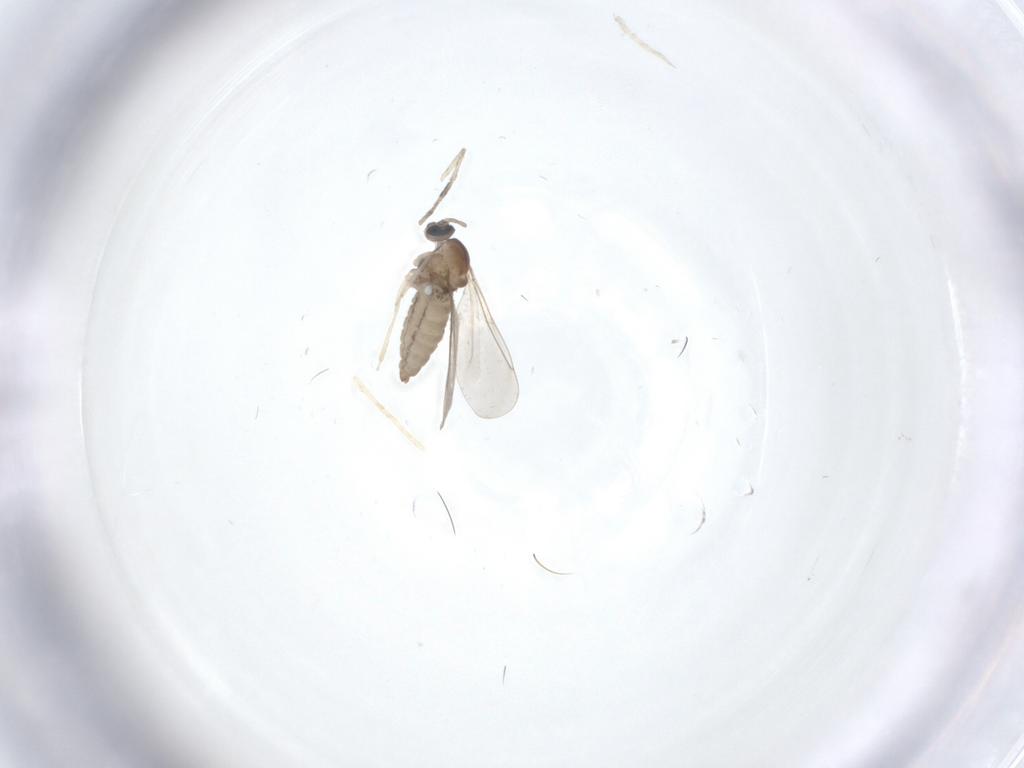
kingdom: Animalia
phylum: Arthropoda
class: Insecta
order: Diptera
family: Cecidomyiidae
